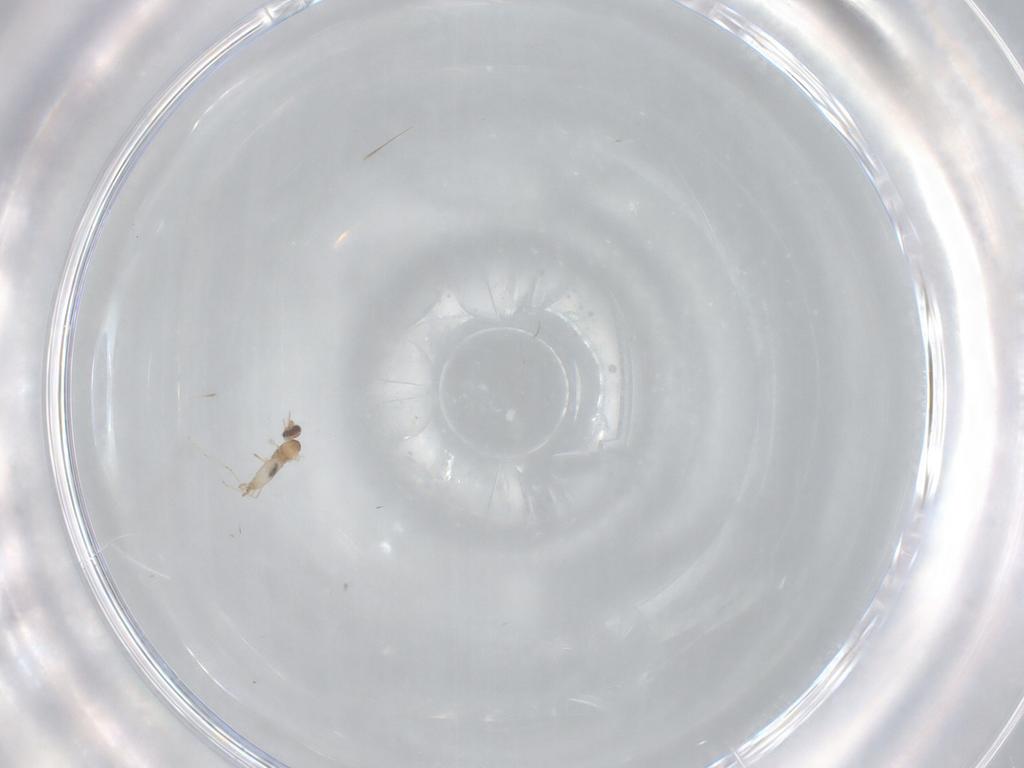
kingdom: Animalia
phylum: Arthropoda
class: Insecta
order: Diptera
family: Cecidomyiidae
